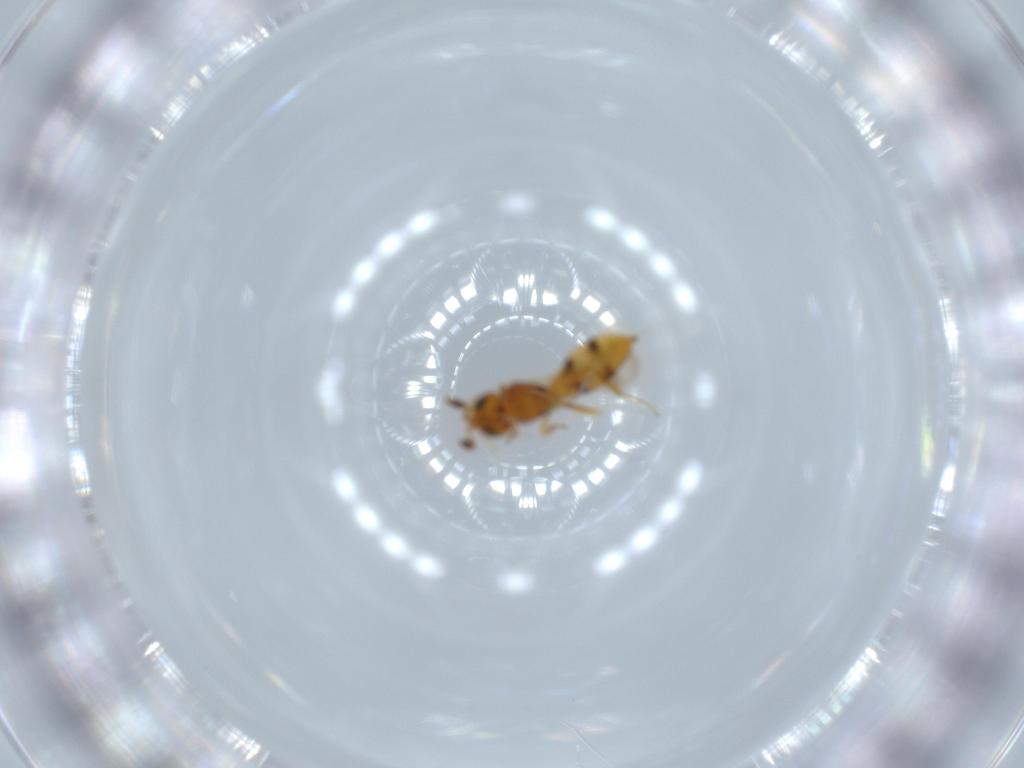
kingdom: Animalia
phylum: Arthropoda
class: Insecta
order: Hymenoptera
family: Scelionidae
